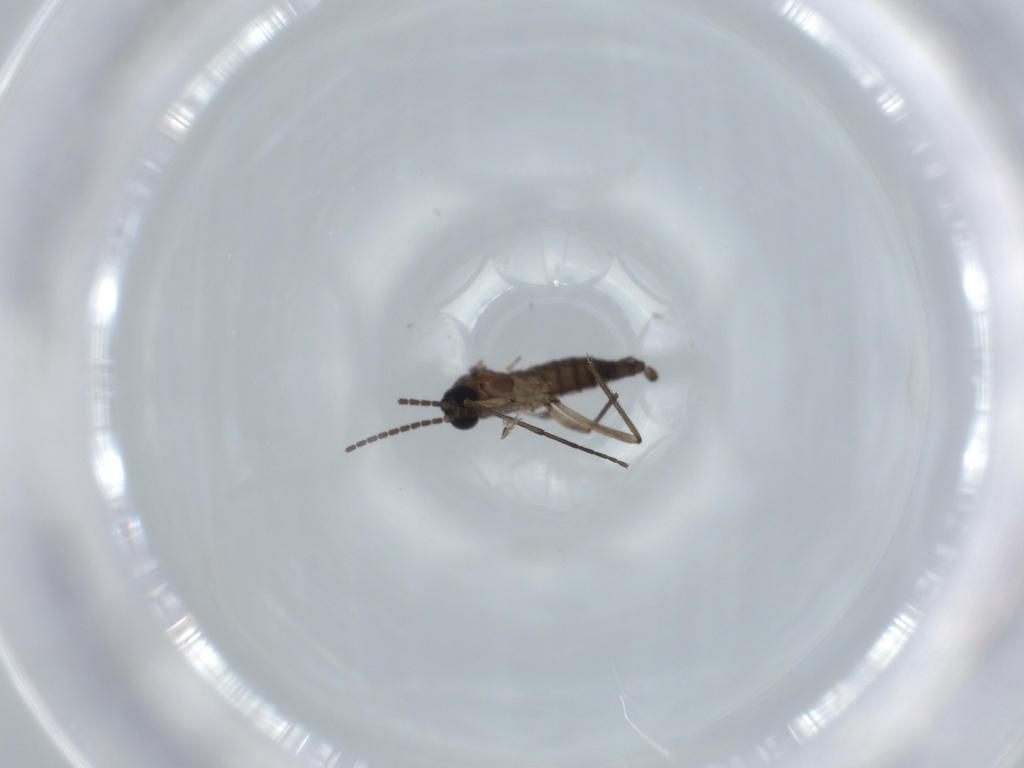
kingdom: Animalia
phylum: Arthropoda
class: Insecta
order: Diptera
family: Sciaridae
